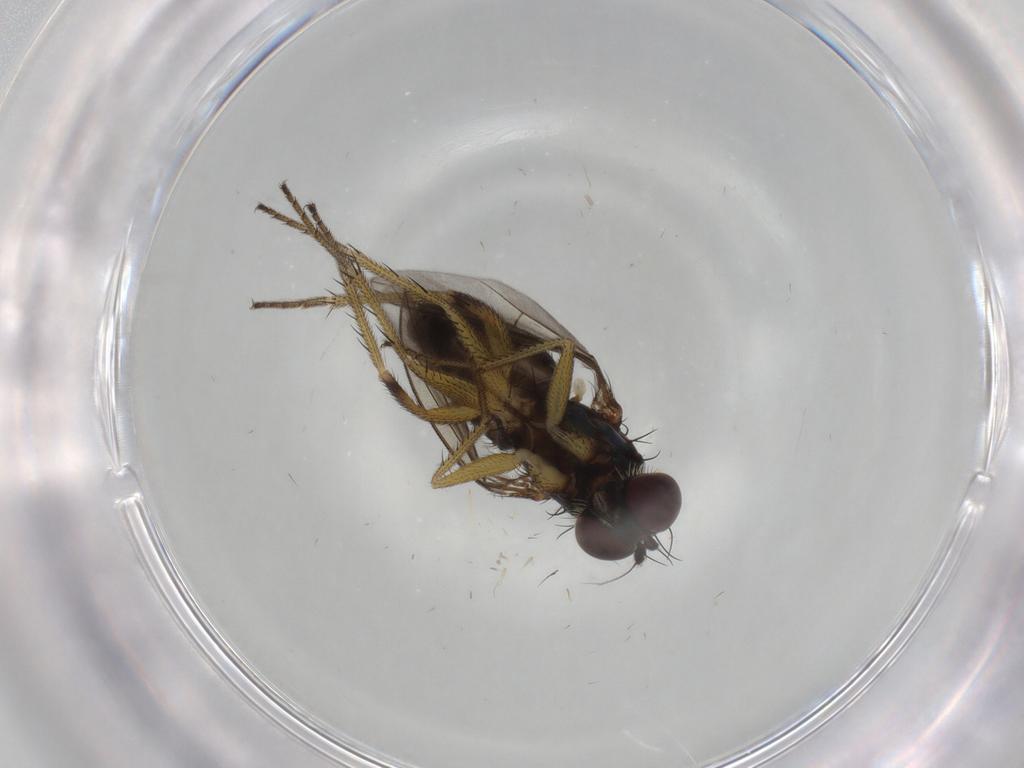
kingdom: Animalia
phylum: Arthropoda
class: Insecta
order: Diptera
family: Dolichopodidae
